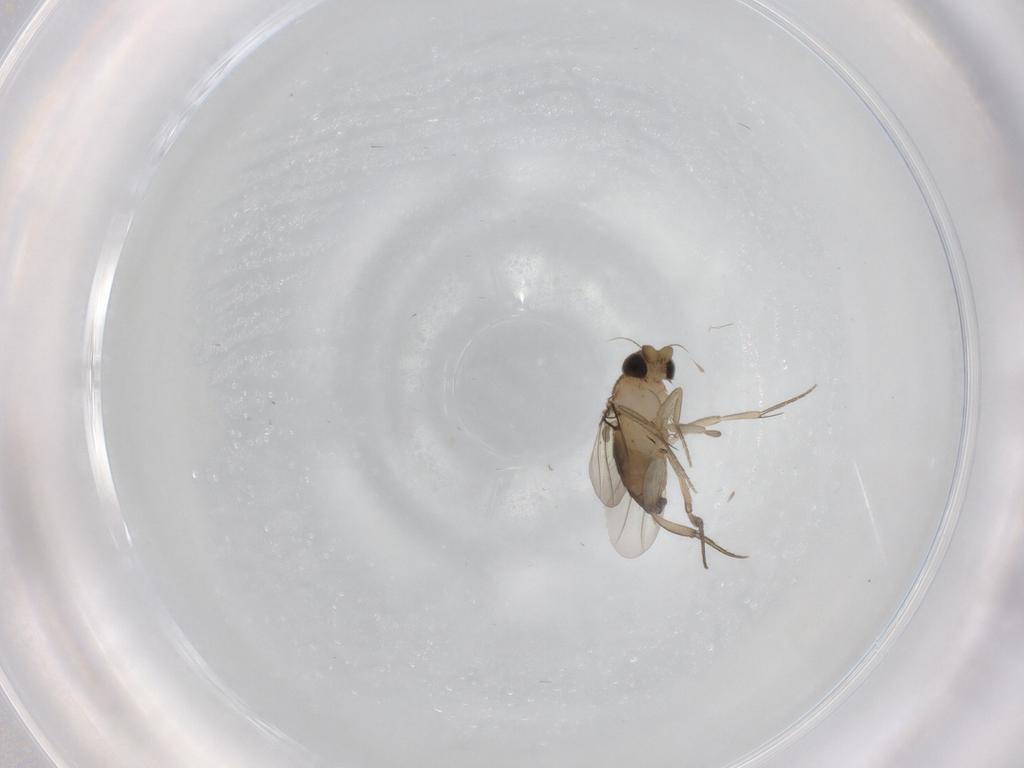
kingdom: Animalia
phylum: Arthropoda
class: Insecta
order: Diptera
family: Phoridae
